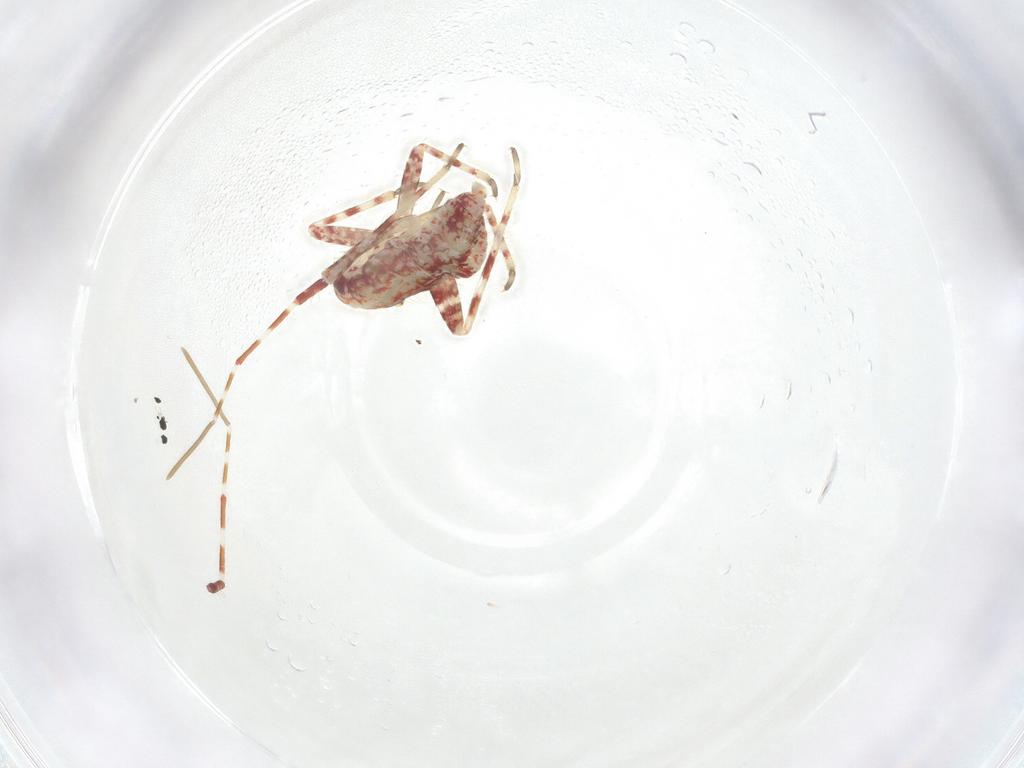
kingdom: Animalia
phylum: Arthropoda
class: Insecta
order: Hemiptera
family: Miridae
